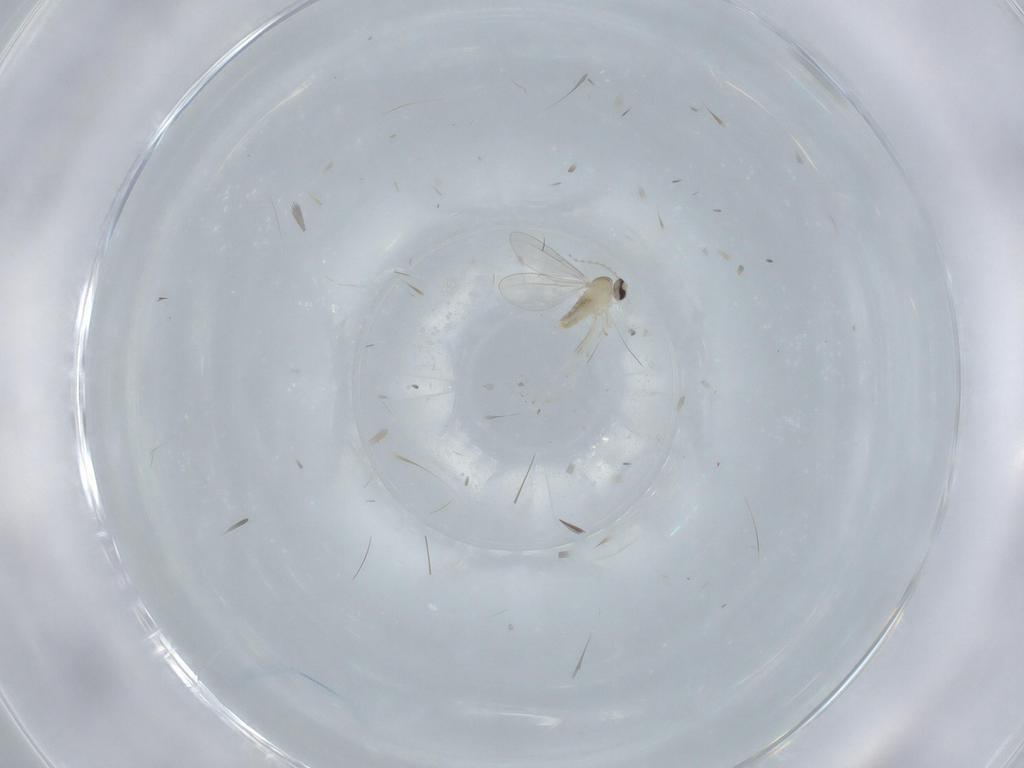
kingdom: Animalia
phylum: Arthropoda
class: Insecta
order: Diptera
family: Cecidomyiidae
